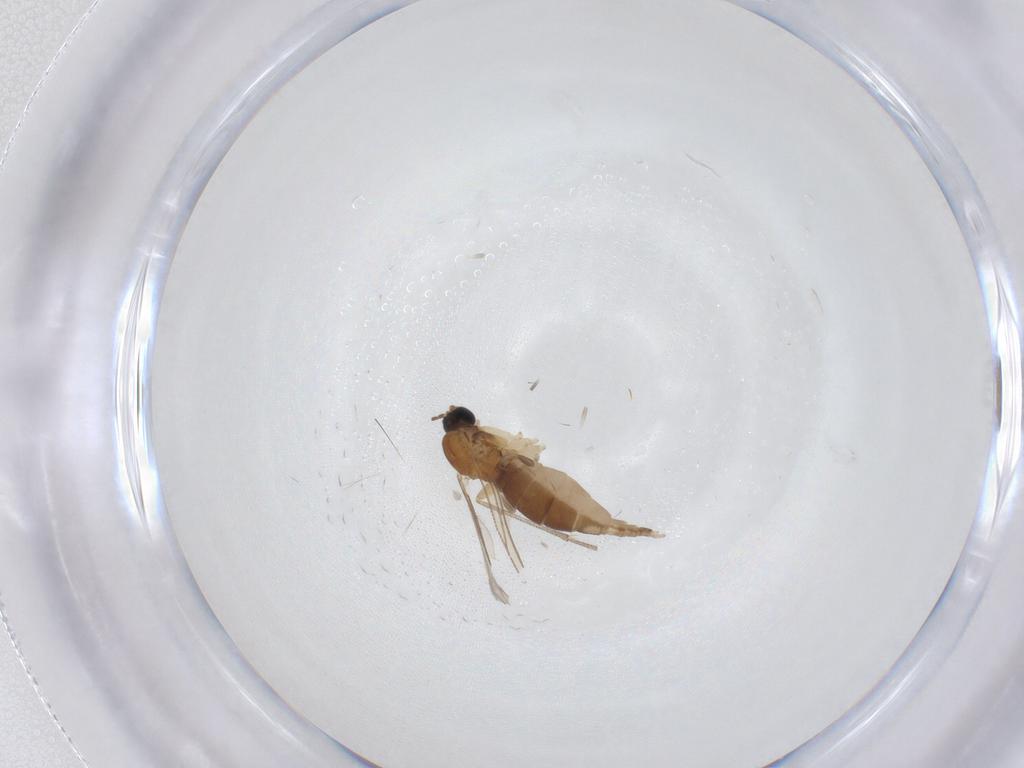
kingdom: Animalia
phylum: Arthropoda
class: Insecta
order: Diptera
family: Sciaridae
